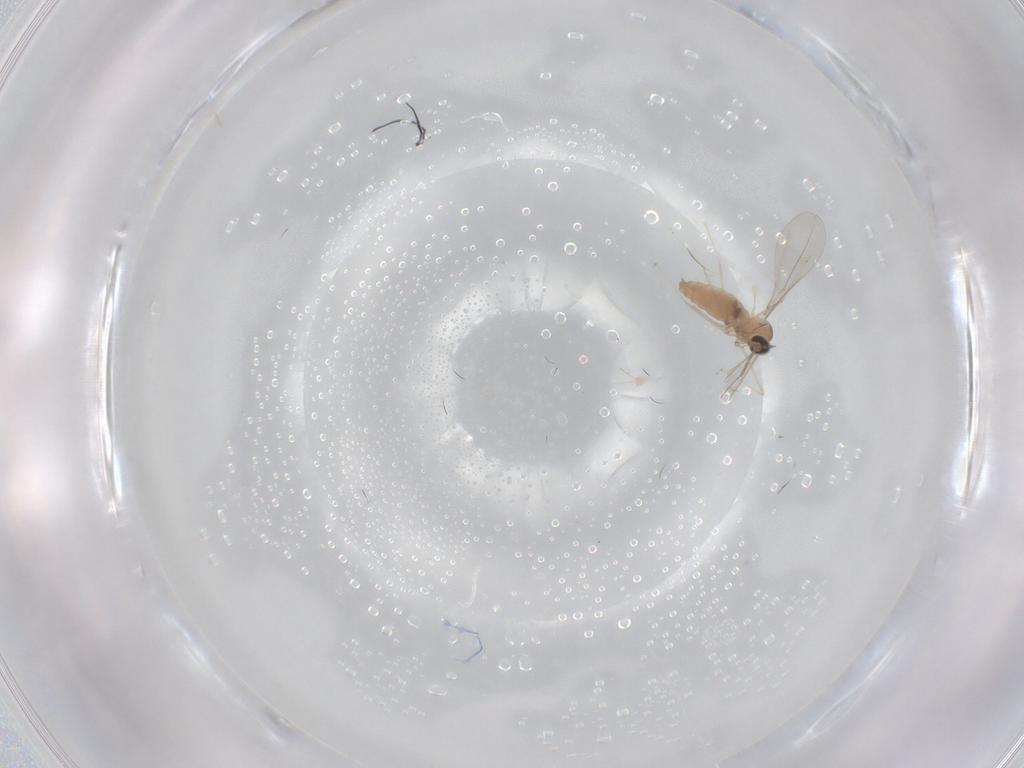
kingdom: Animalia
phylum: Arthropoda
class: Insecta
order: Diptera
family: Cecidomyiidae
